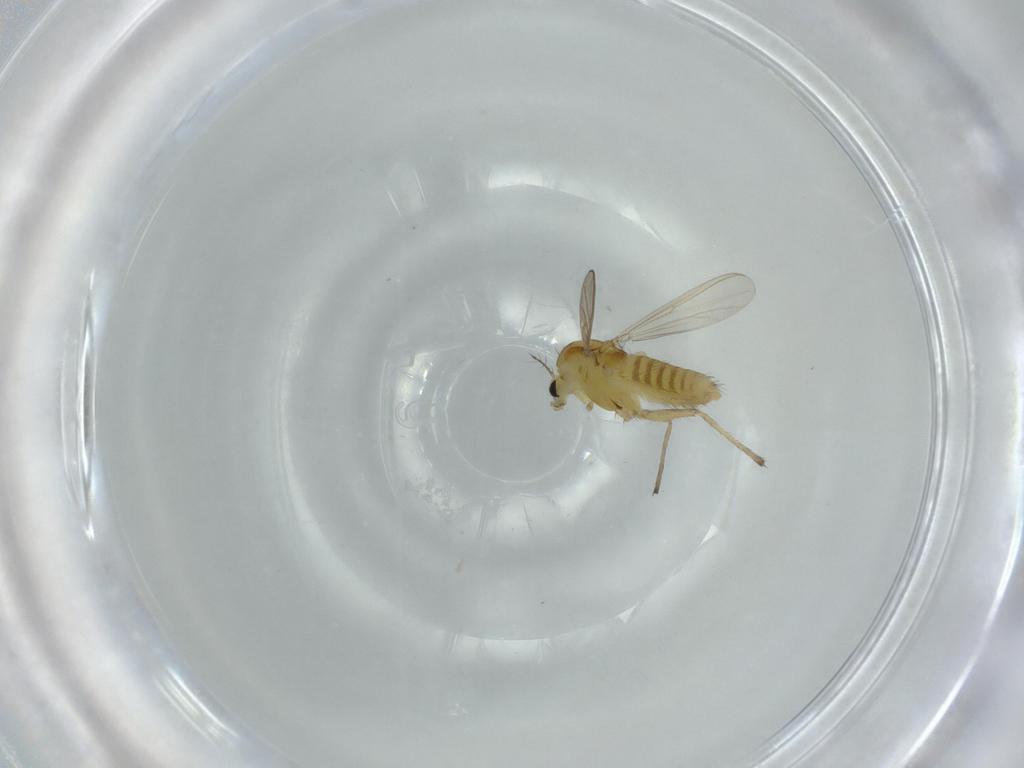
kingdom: Animalia
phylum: Arthropoda
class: Insecta
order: Diptera
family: Chironomidae
